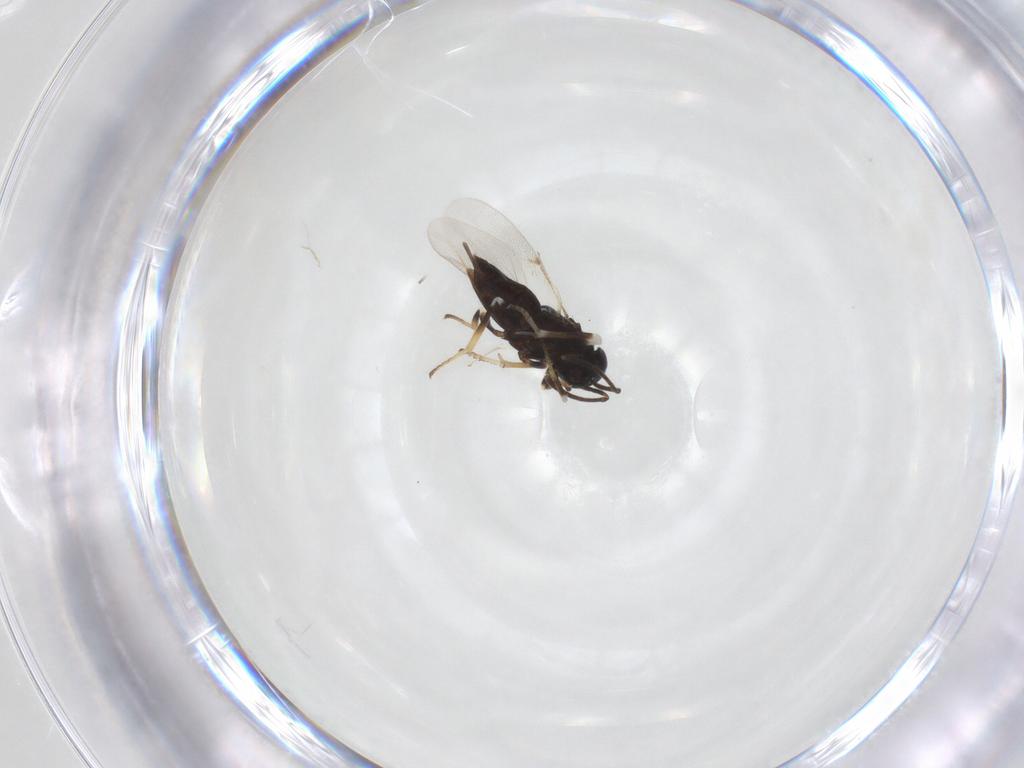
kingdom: Animalia
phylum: Arthropoda
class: Insecta
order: Hymenoptera
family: Encyrtidae
